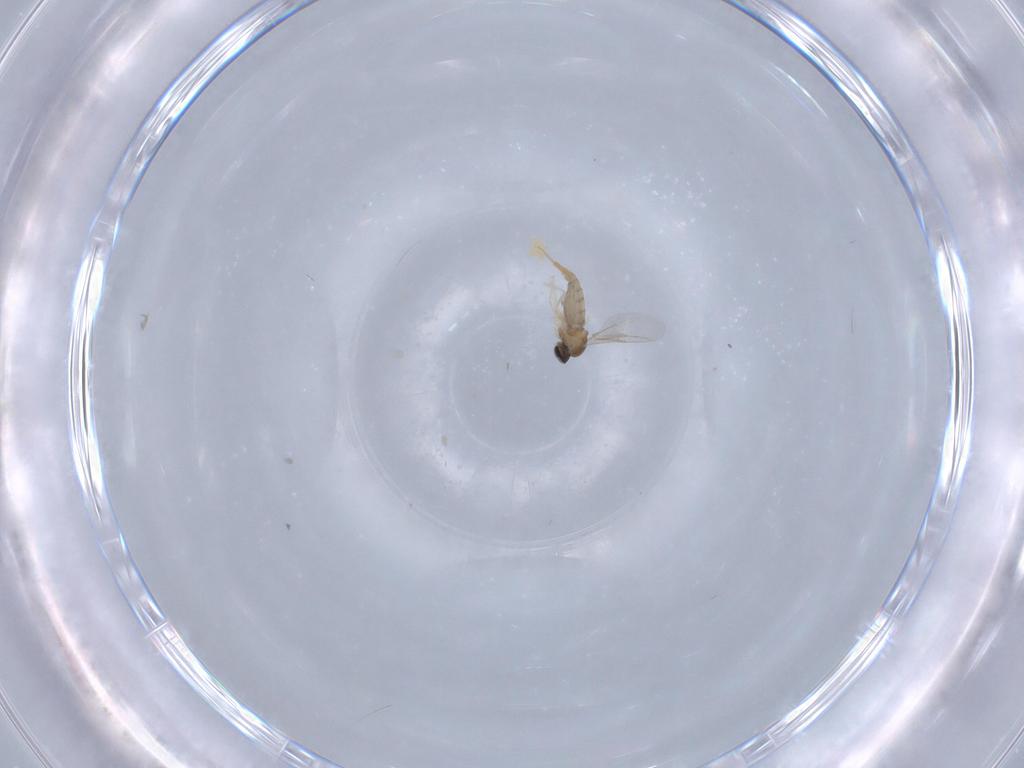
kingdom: Animalia
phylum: Arthropoda
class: Insecta
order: Diptera
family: Cecidomyiidae
